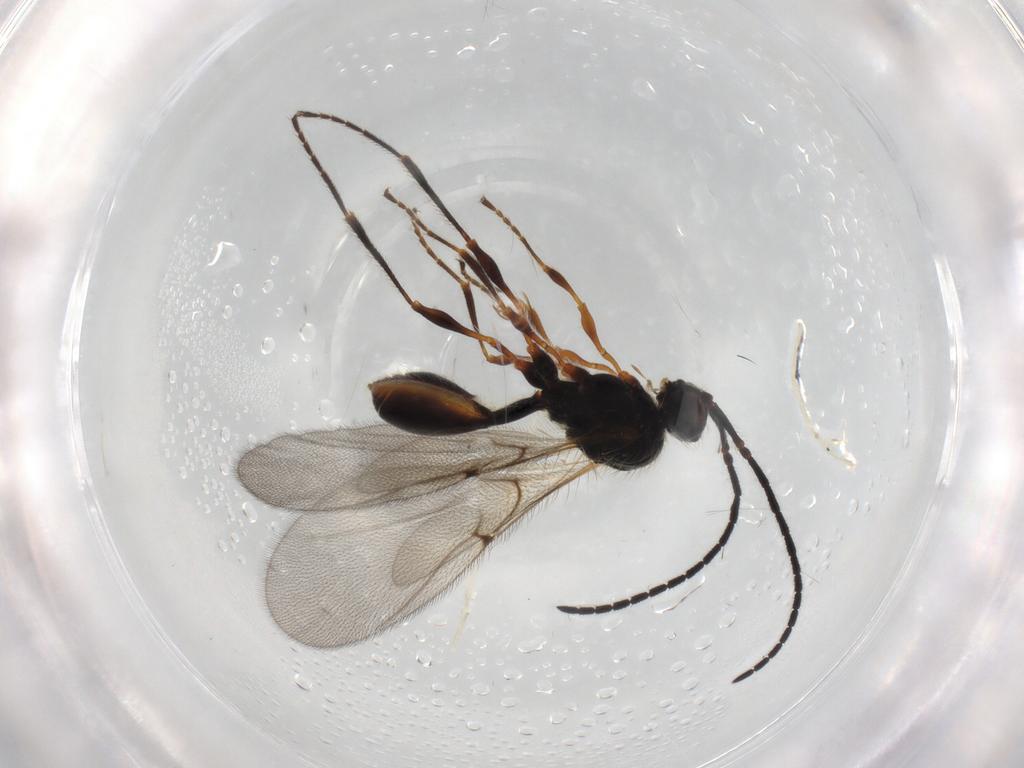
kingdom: Animalia
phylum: Arthropoda
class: Insecta
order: Hymenoptera
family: Diapriidae
